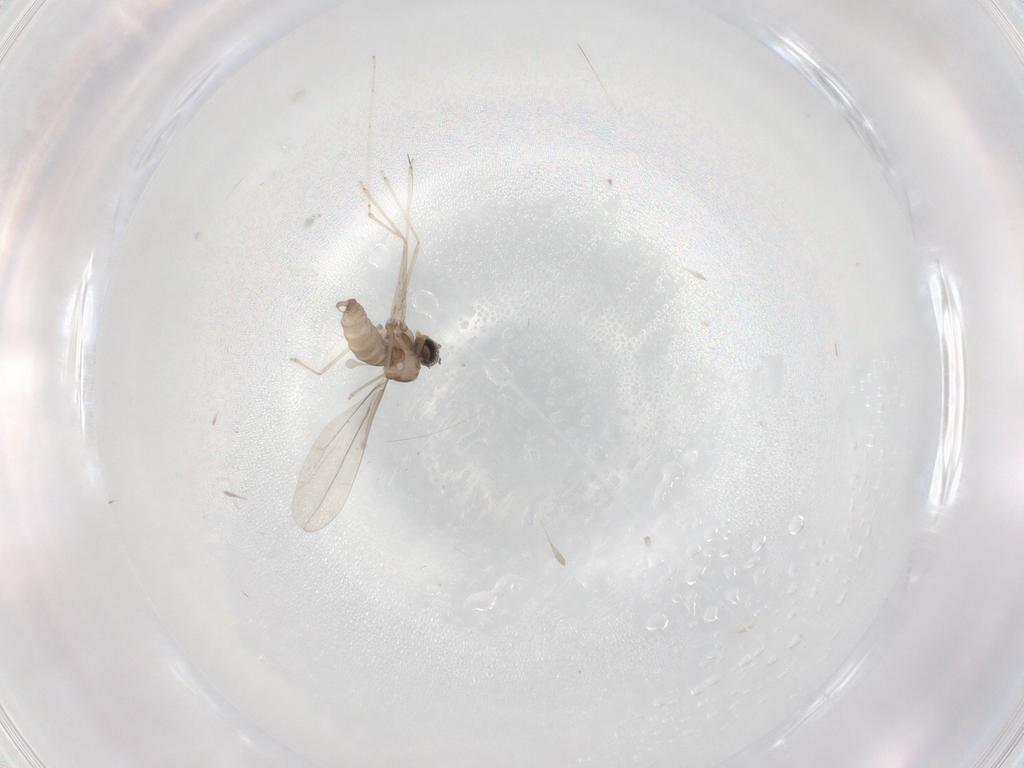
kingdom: Animalia
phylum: Arthropoda
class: Insecta
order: Diptera
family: Cecidomyiidae
